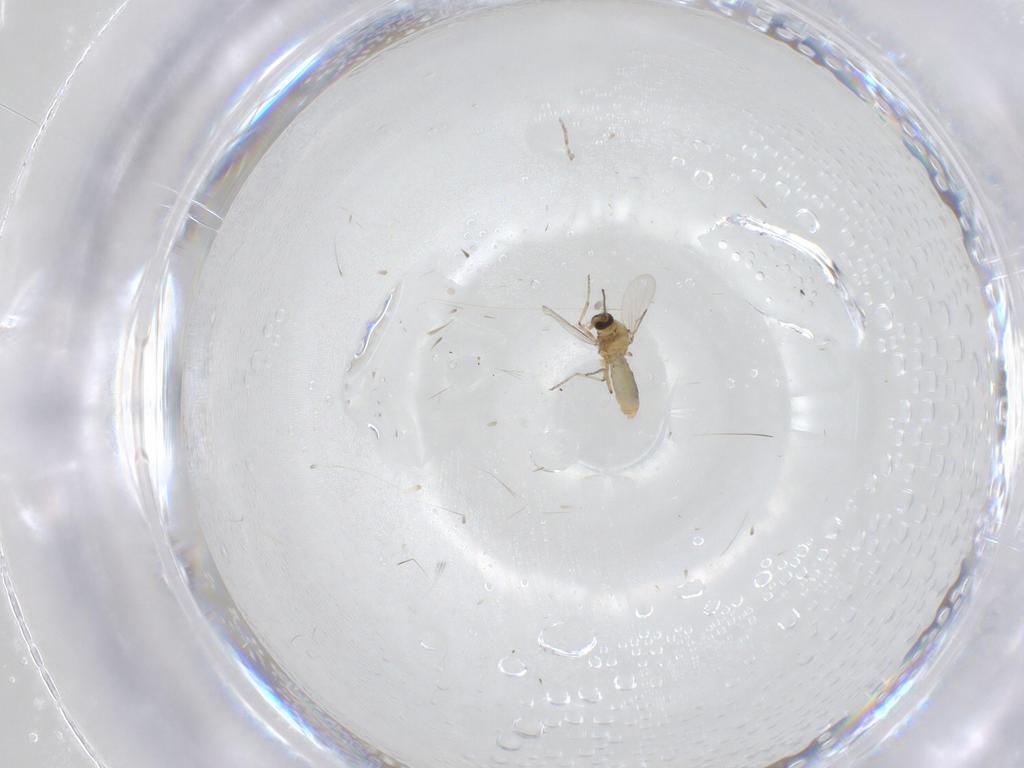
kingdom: Animalia
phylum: Arthropoda
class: Insecta
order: Diptera
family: Ceratopogonidae
